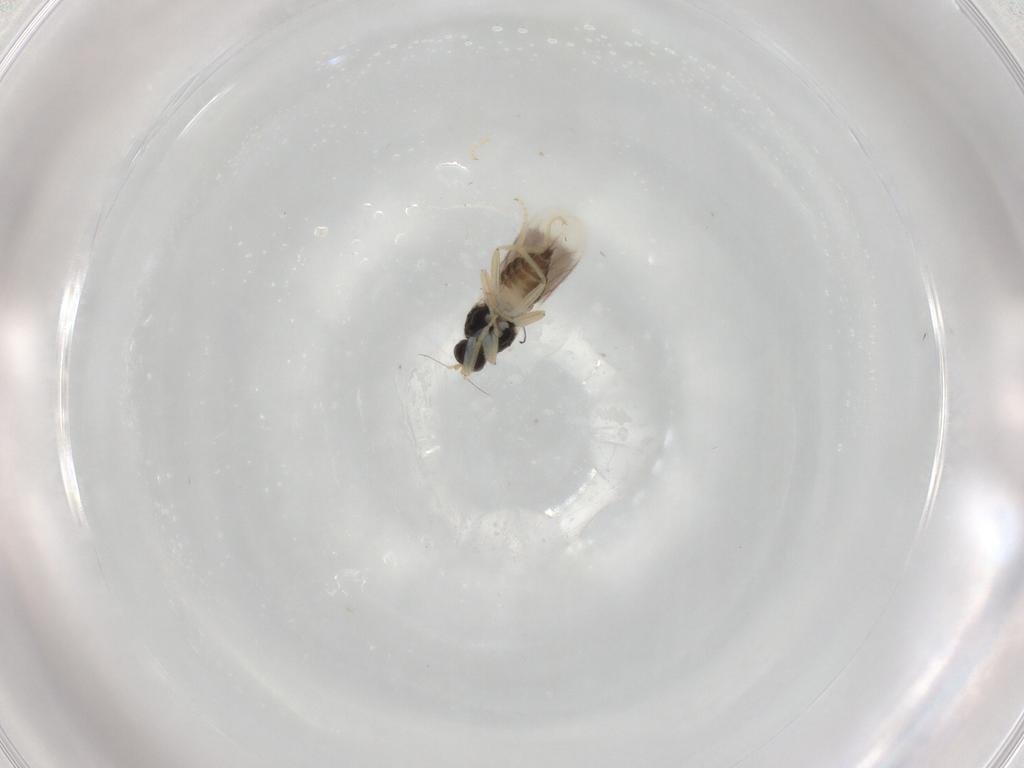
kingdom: Animalia
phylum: Arthropoda
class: Insecta
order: Diptera
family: Hybotidae
